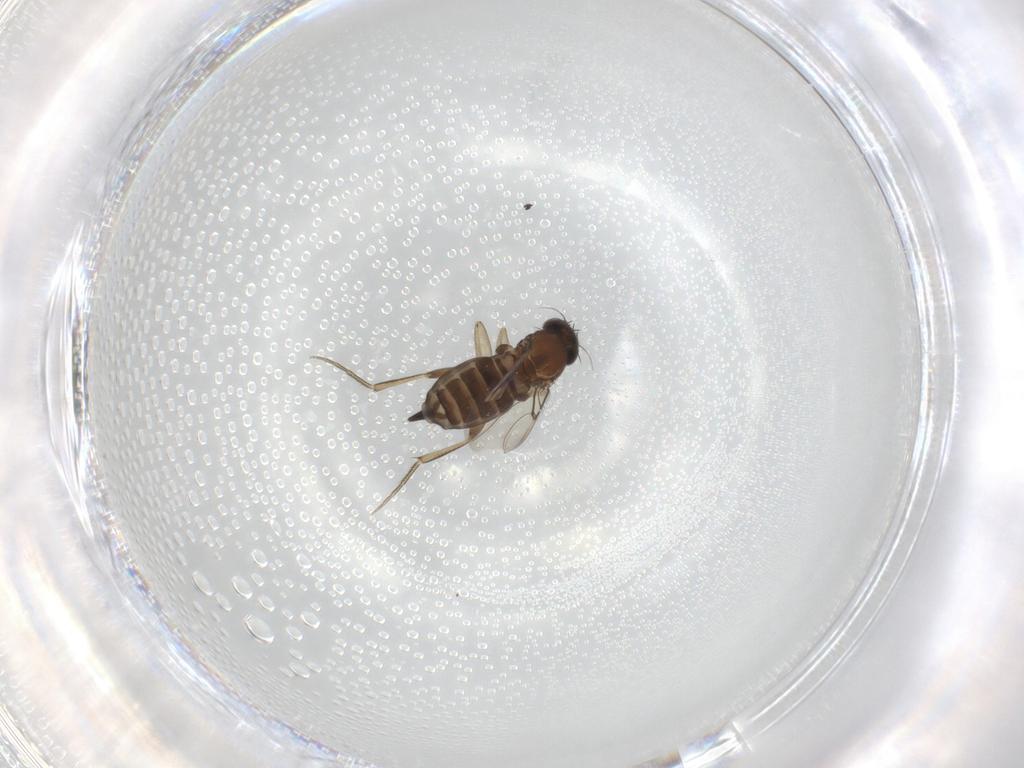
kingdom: Animalia
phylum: Arthropoda
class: Insecta
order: Diptera
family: Phoridae
